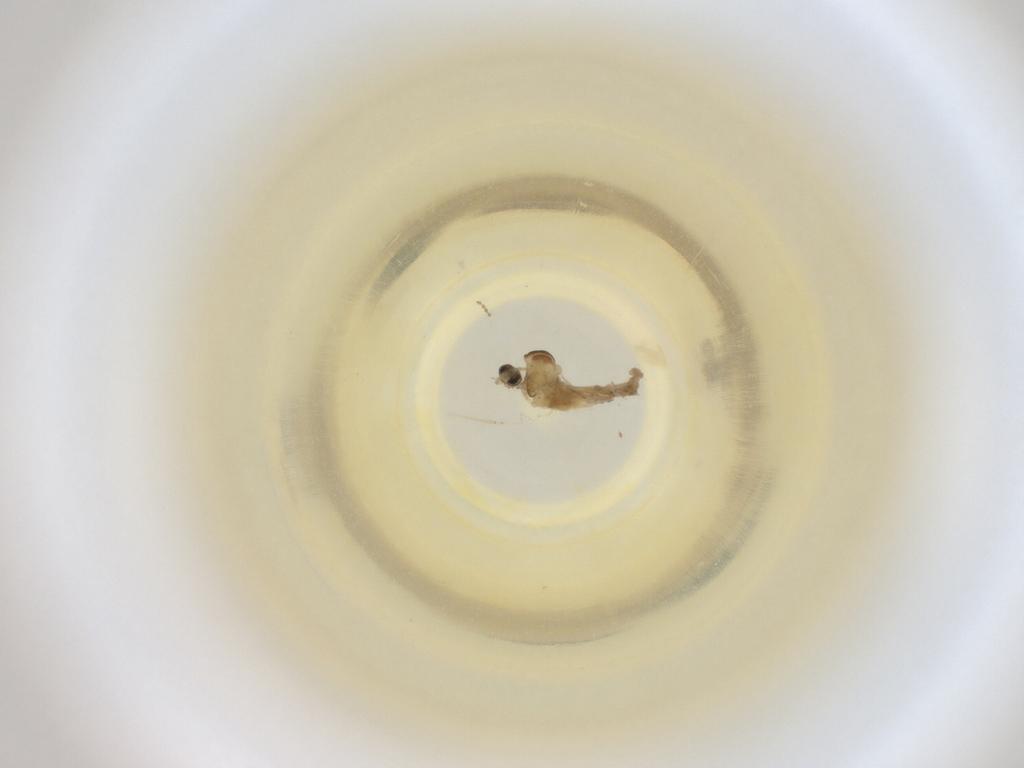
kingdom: Animalia
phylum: Arthropoda
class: Insecta
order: Diptera
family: Cecidomyiidae
